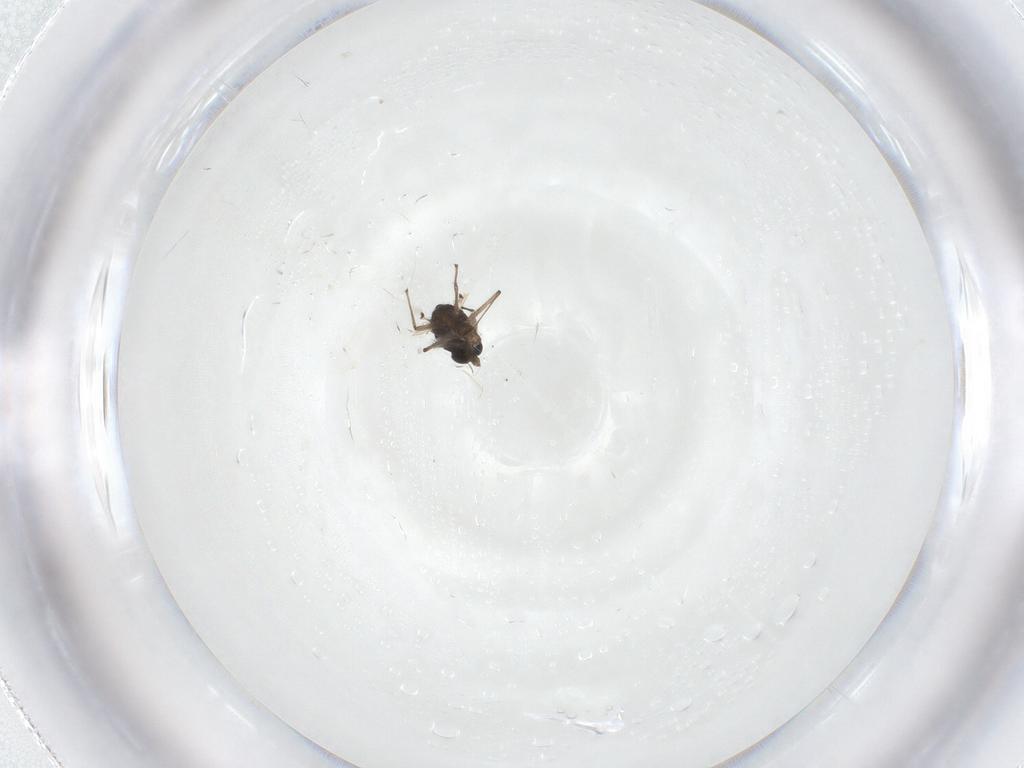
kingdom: Animalia
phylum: Arthropoda
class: Insecta
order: Diptera
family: Chironomidae
